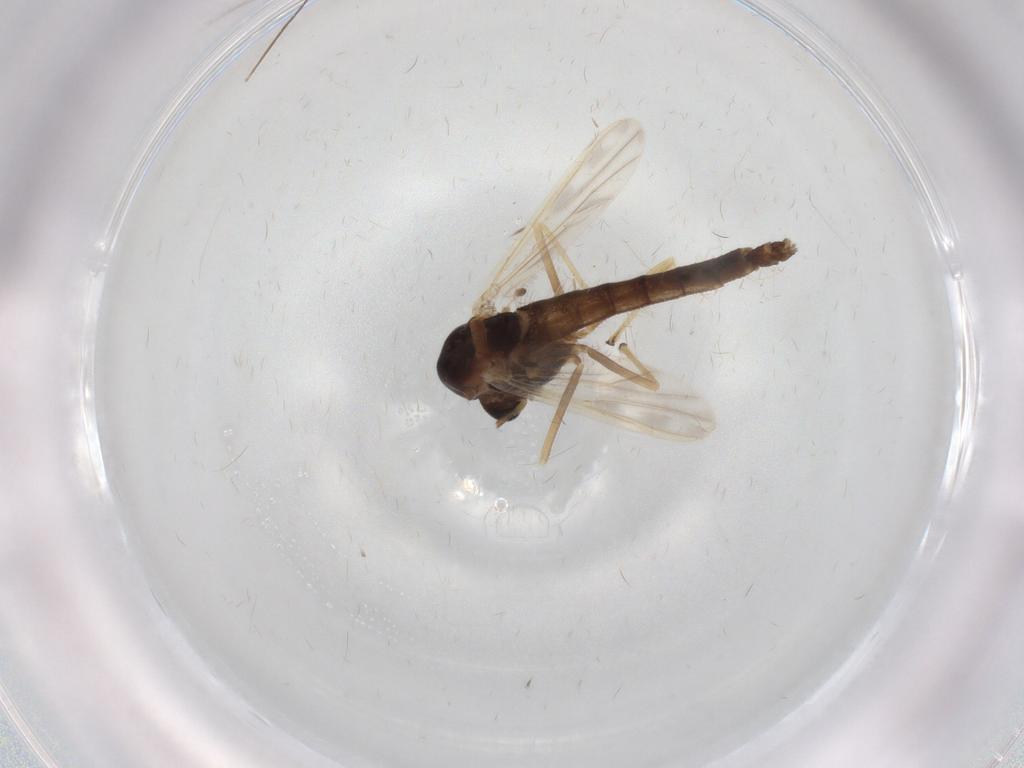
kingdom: Animalia
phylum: Arthropoda
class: Insecta
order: Diptera
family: Chironomidae
